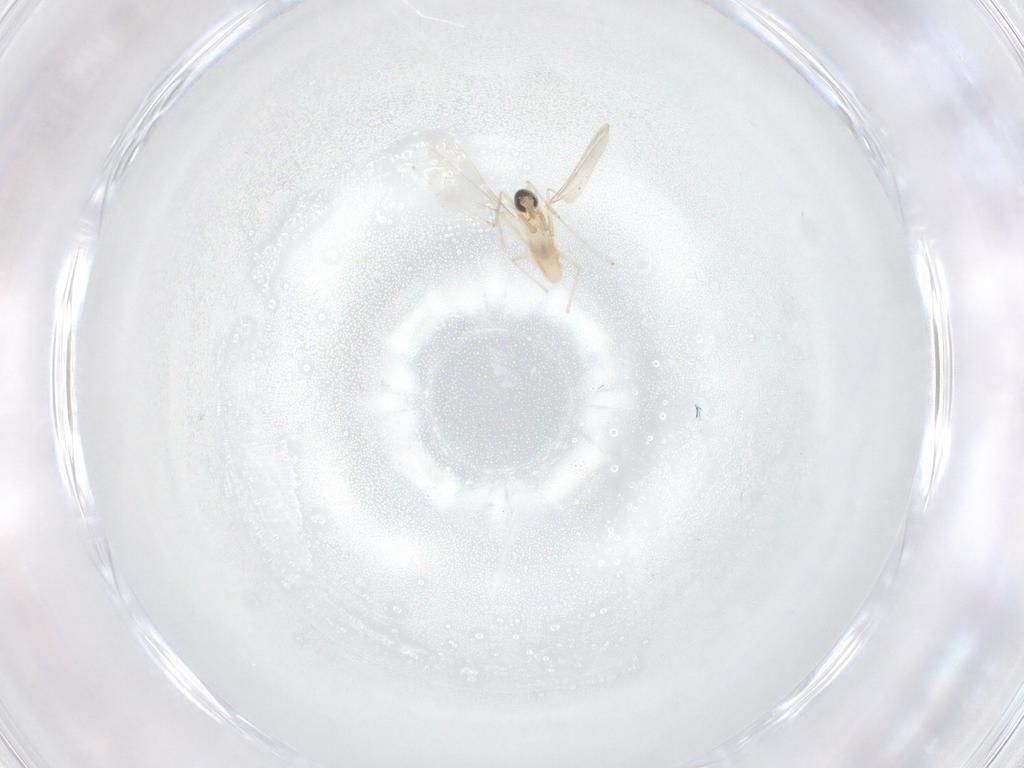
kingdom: Animalia
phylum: Arthropoda
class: Insecta
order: Diptera
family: Cecidomyiidae
